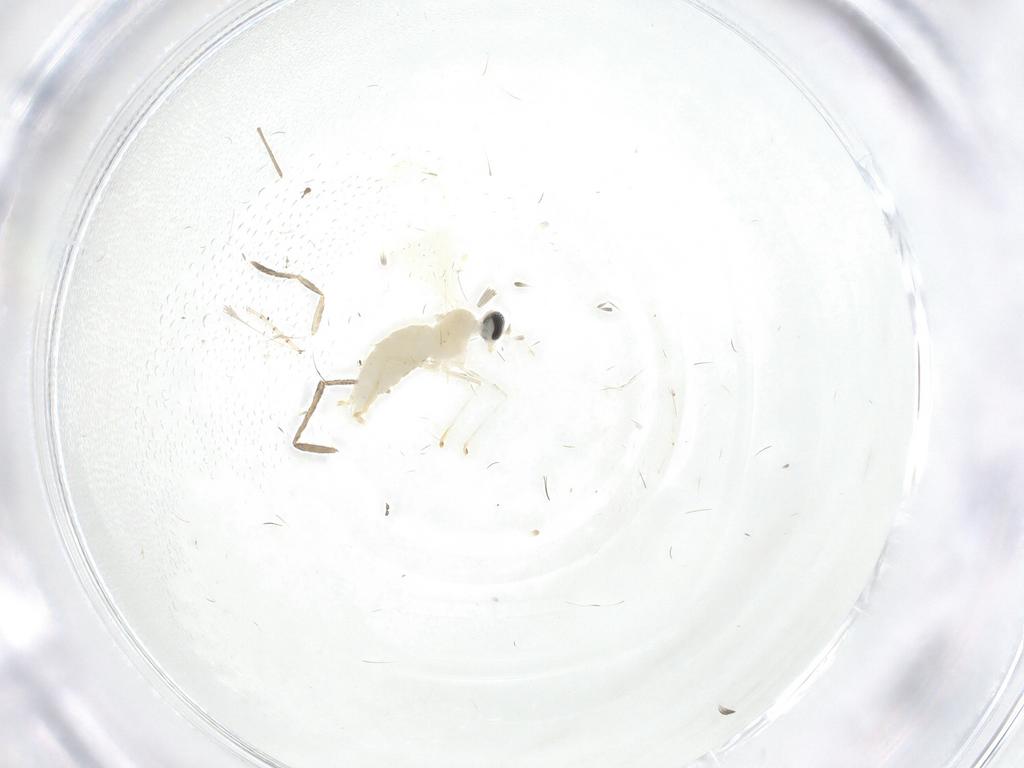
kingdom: Animalia
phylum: Arthropoda
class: Insecta
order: Diptera
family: Cecidomyiidae
